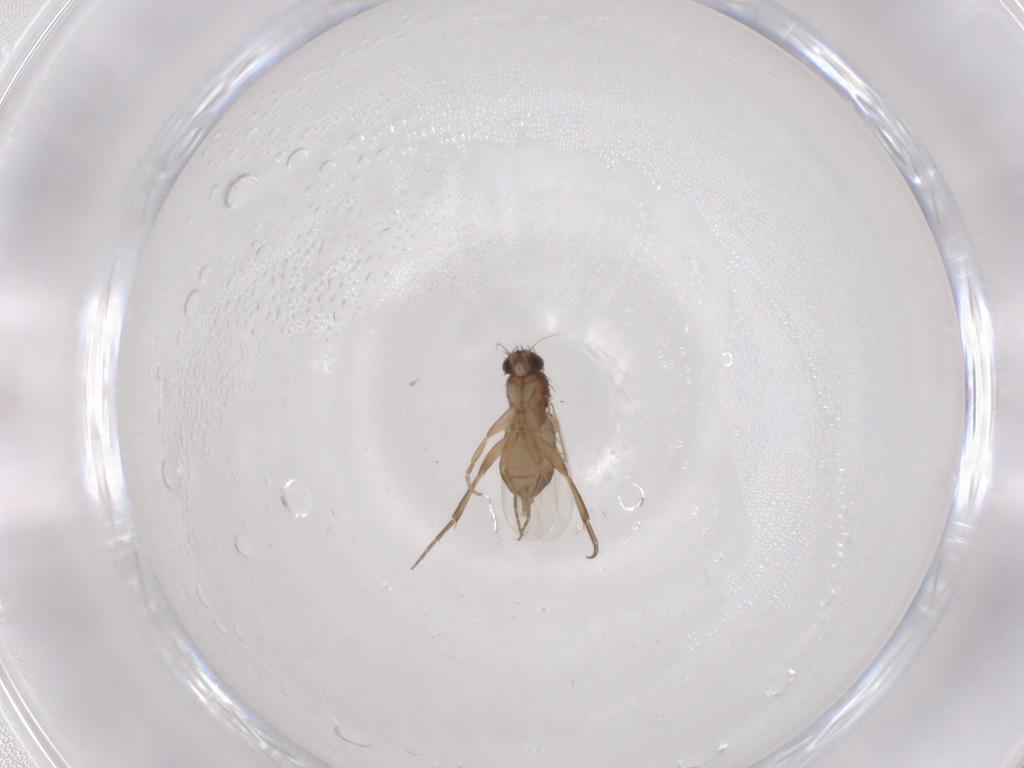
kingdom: Animalia
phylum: Arthropoda
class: Insecta
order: Diptera
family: Phoridae
